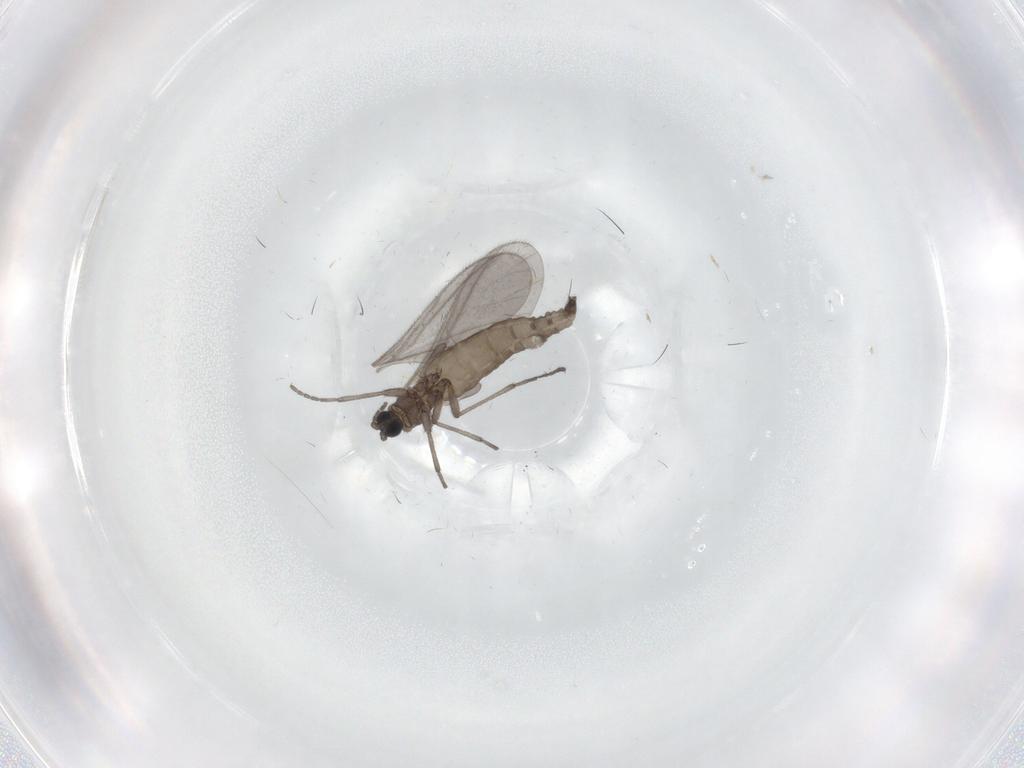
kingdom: Animalia
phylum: Arthropoda
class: Insecta
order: Diptera
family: Sciaridae
